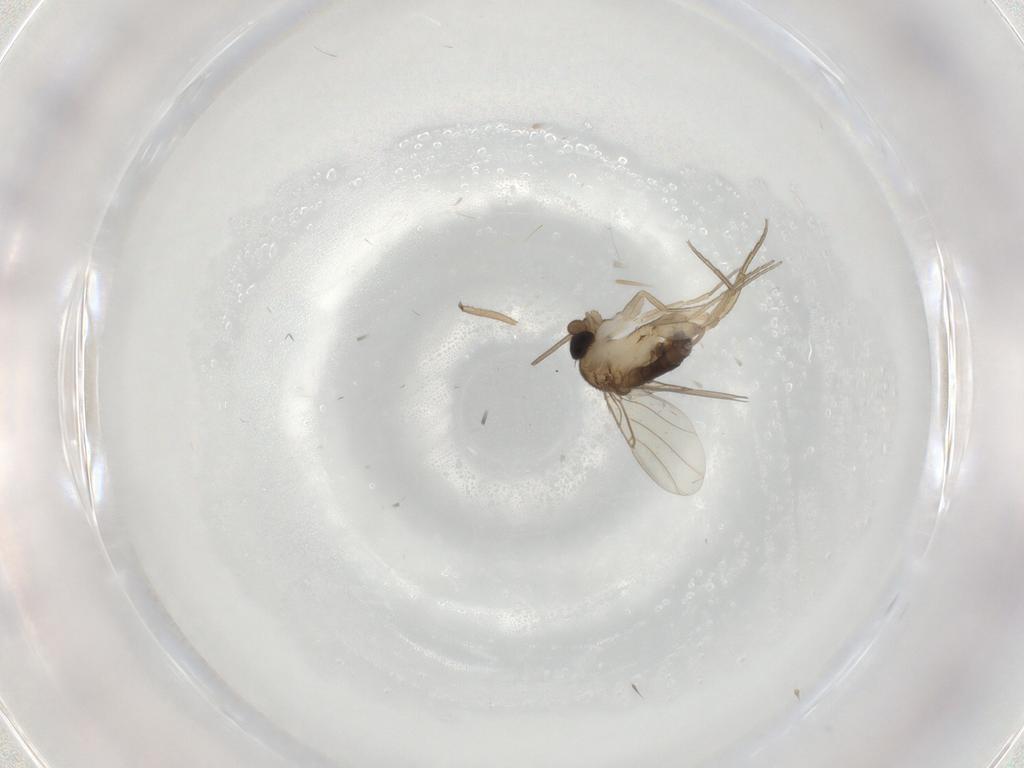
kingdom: Animalia
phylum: Arthropoda
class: Insecta
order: Diptera
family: Phoridae
